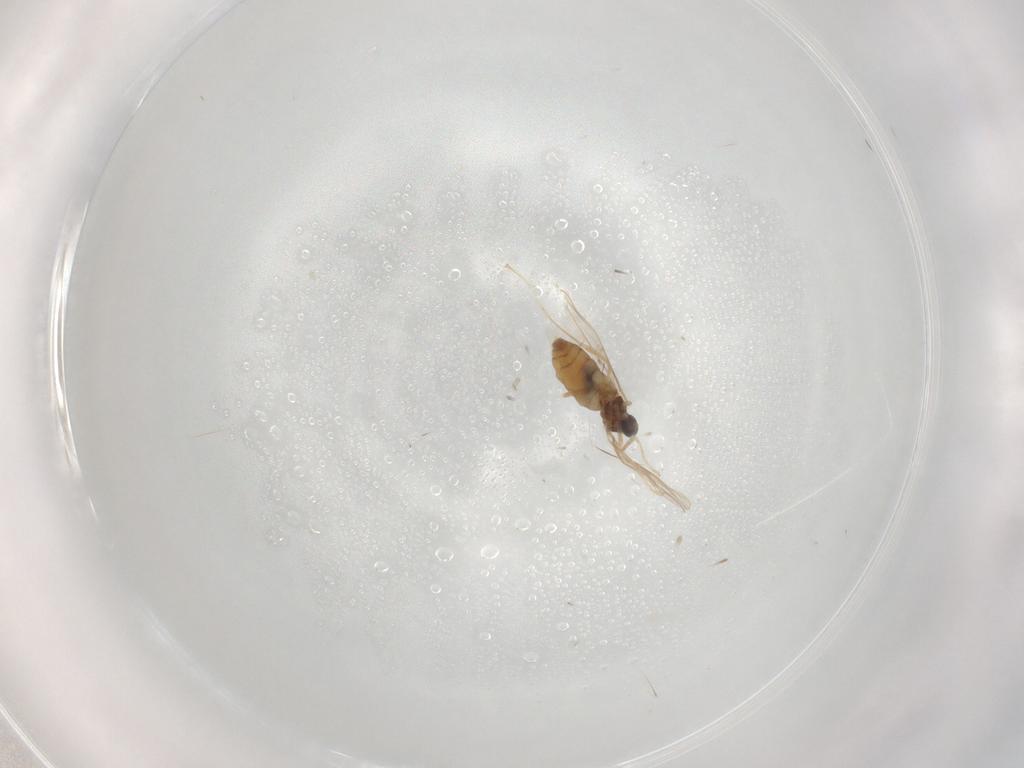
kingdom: Animalia
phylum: Arthropoda
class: Insecta
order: Diptera
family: Cecidomyiidae
